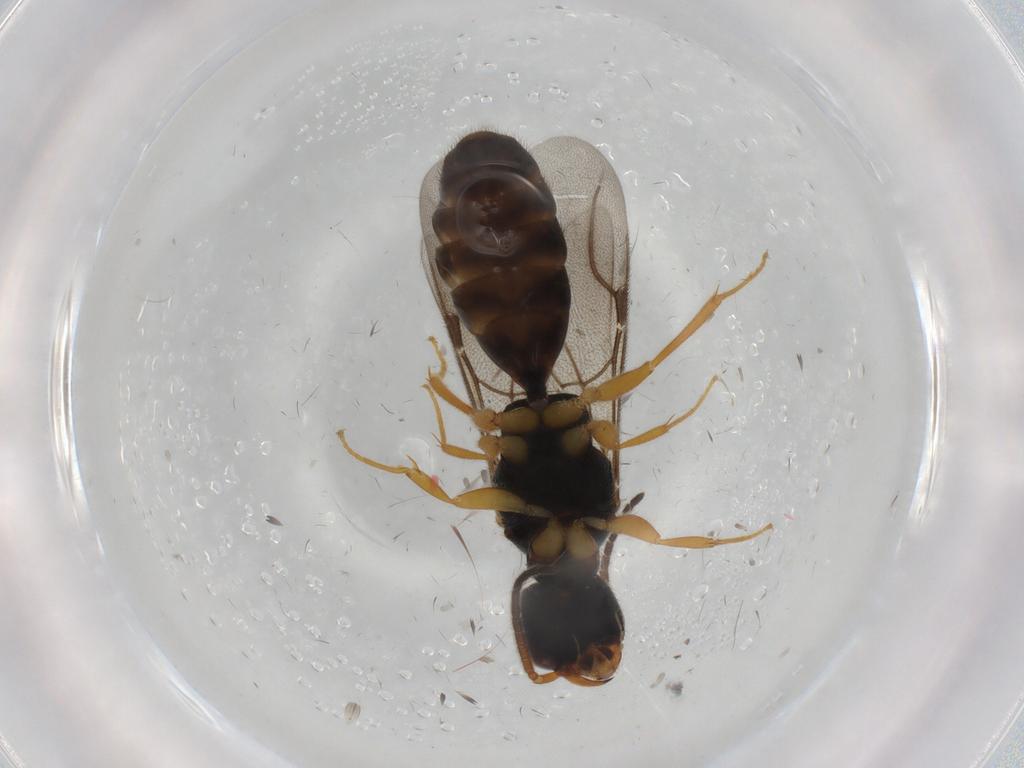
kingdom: Animalia
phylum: Arthropoda
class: Insecta
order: Hymenoptera
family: Bethylidae
